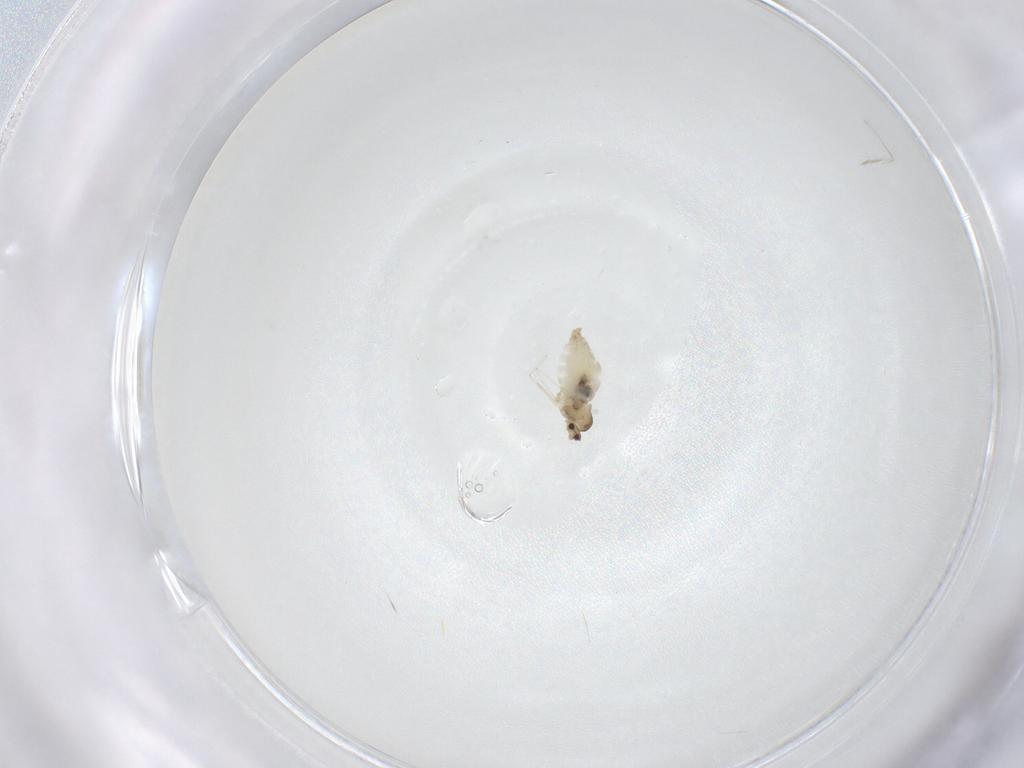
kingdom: Animalia
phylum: Arthropoda
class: Insecta
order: Diptera
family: Cecidomyiidae
